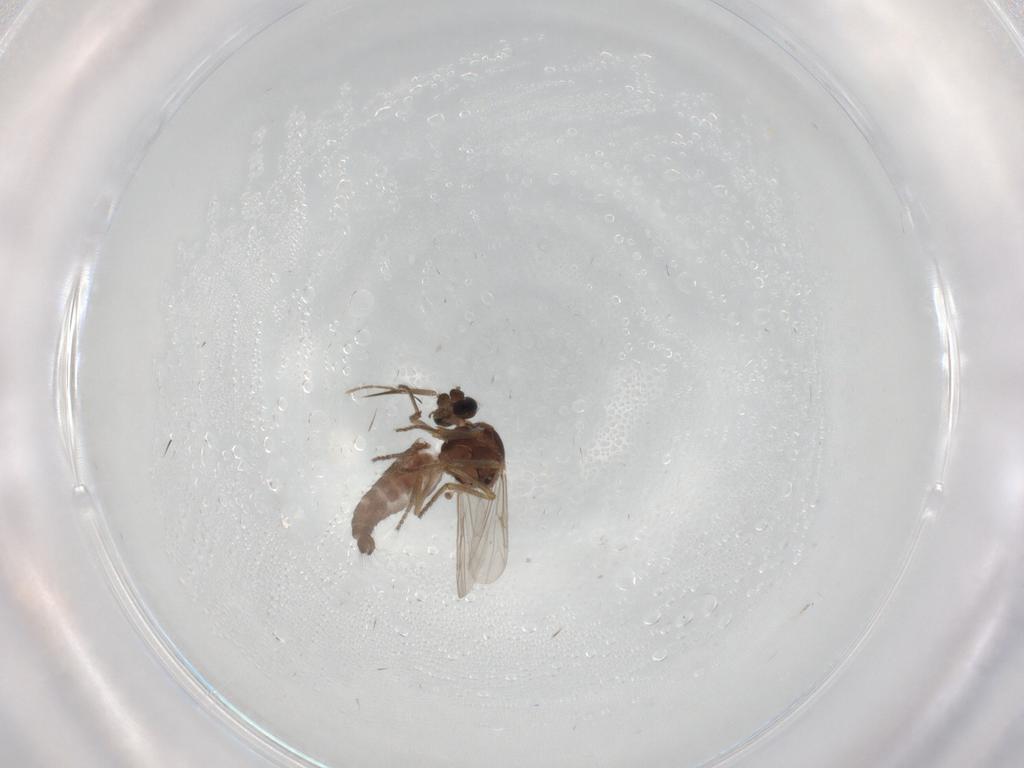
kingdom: Animalia
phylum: Arthropoda
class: Insecta
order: Diptera
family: Ceratopogonidae
